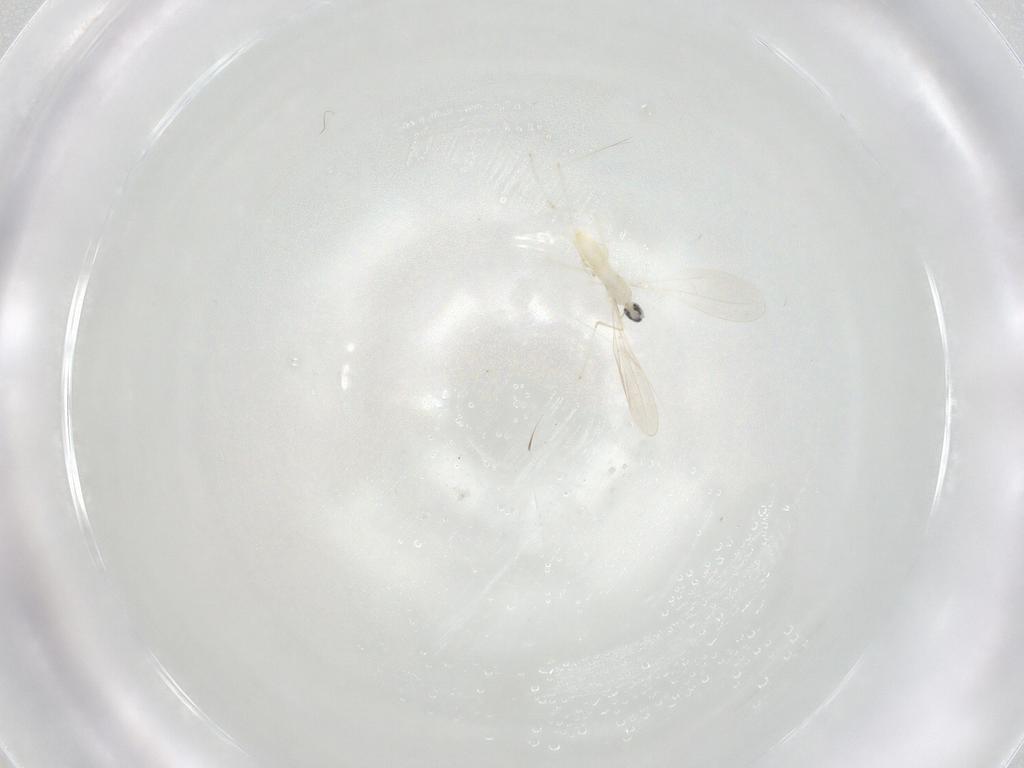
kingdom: Animalia
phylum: Arthropoda
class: Insecta
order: Diptera
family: Cecidomyiidae
